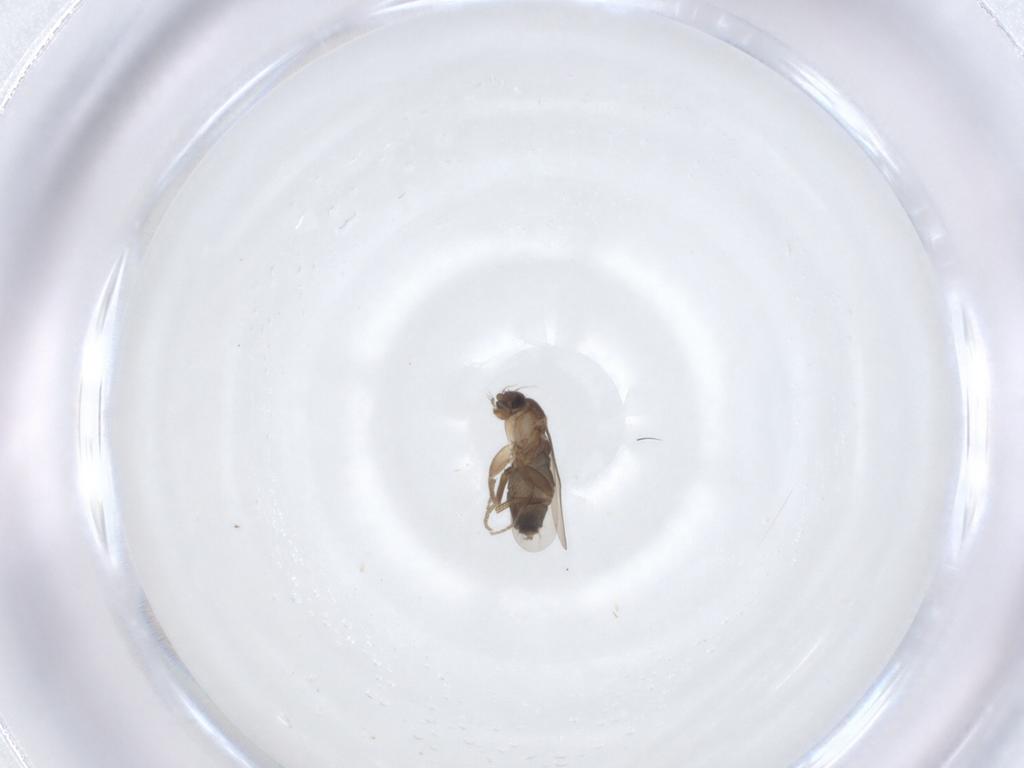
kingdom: Animalia
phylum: Arthropoda
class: Insecta
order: Diptera
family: Phoridae
